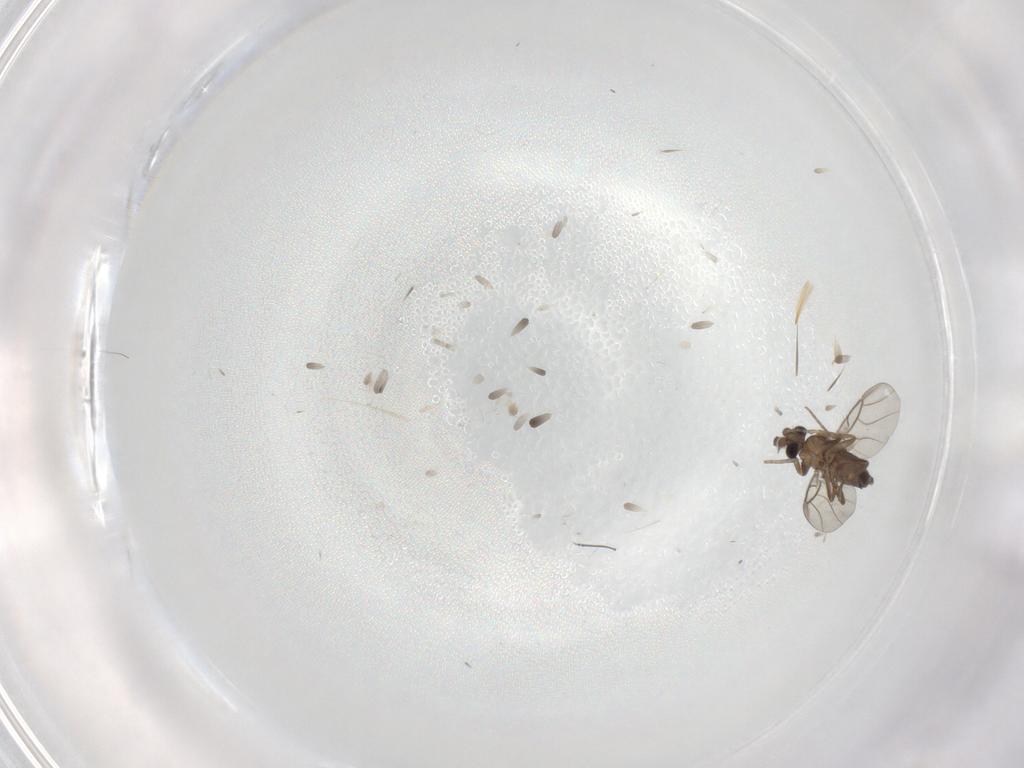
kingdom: Animalia
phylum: Arthropoda
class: Insecta
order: Diptera
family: Phoridae
